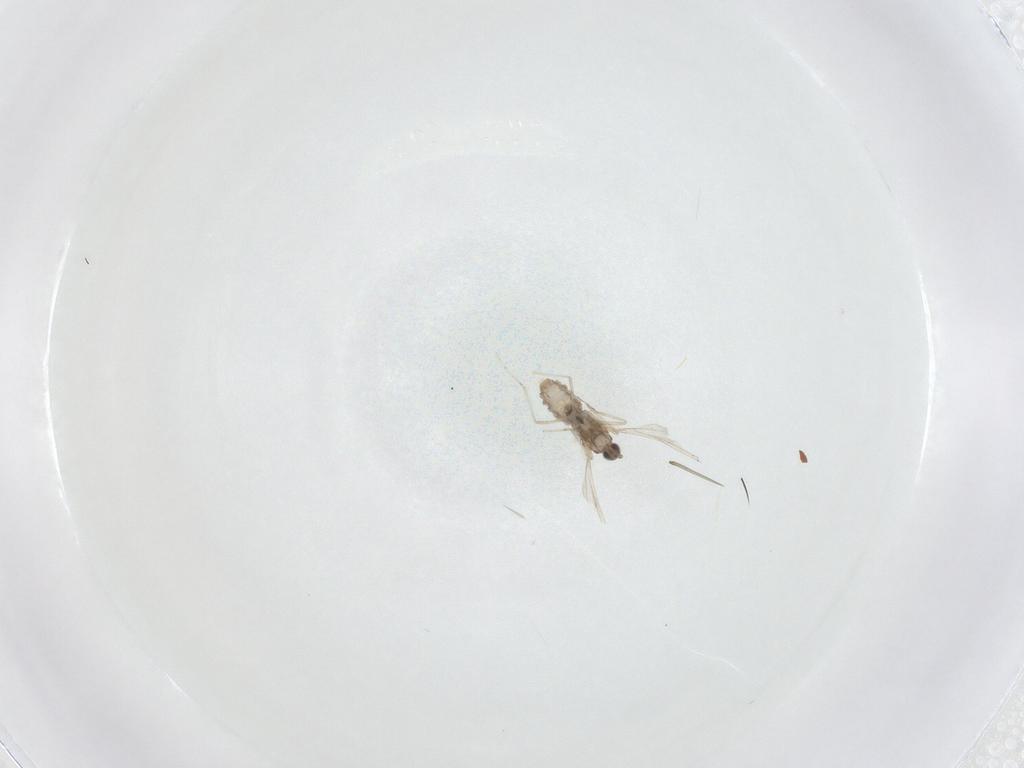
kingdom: Animalia
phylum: Arthropoda
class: Insecta
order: Diptera
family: Cecidomyiidae
